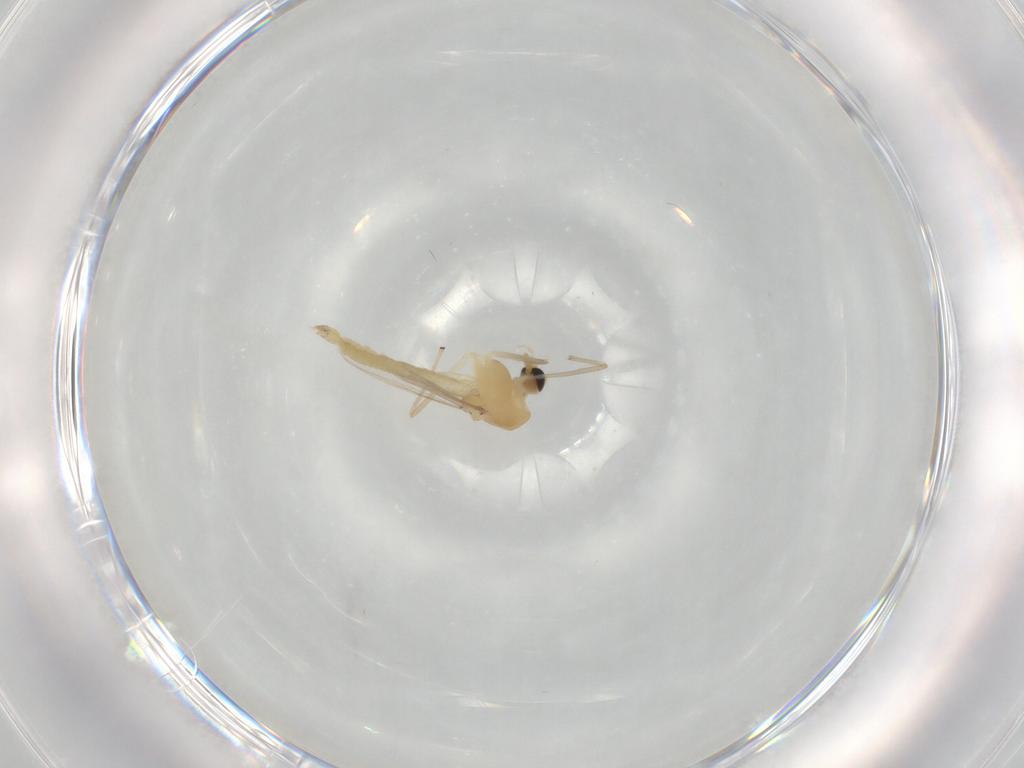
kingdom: Animalia
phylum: Arthropoda
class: Insecta
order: Diptera
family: Chironomidae
